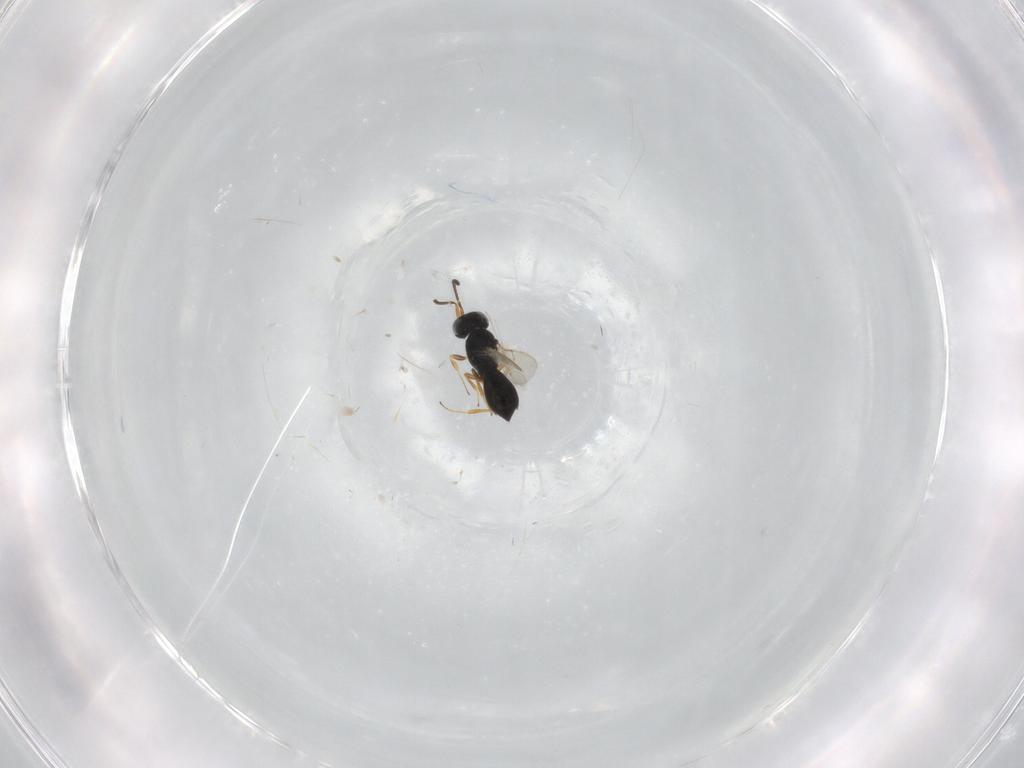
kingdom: Animalia
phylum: Arthropoda
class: Insecta
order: Hymenoptera
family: Scelionidae
